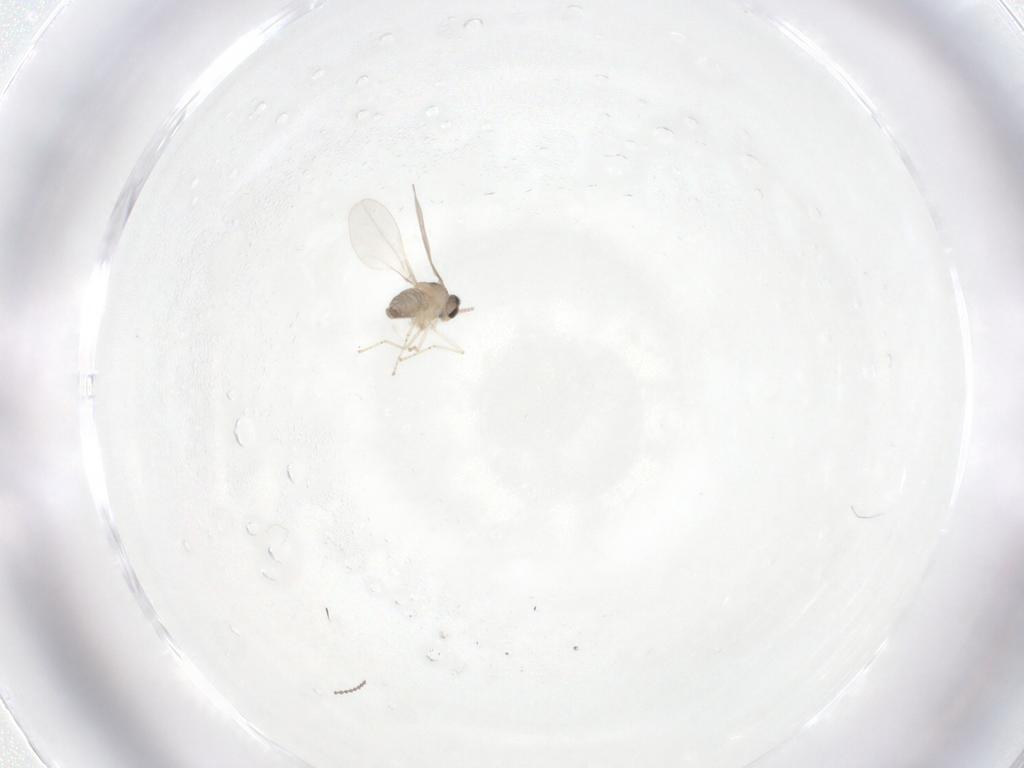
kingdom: Animalia
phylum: Arthropoda
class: Insecta
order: Diptera
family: Cecidomyiidae
